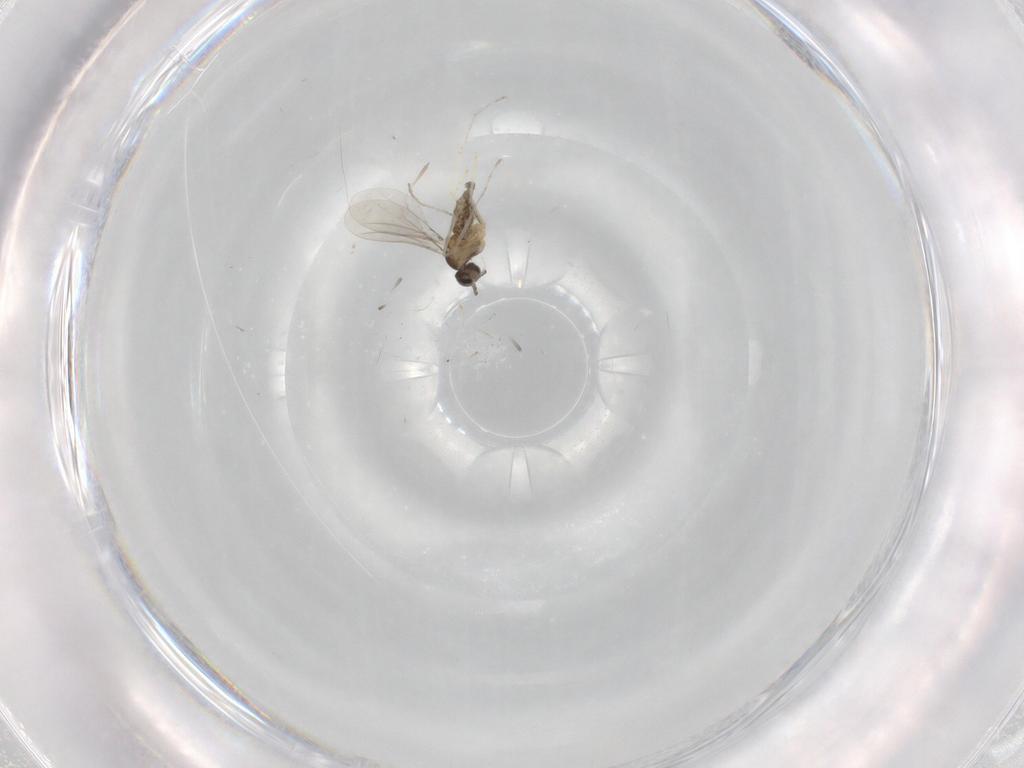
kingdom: Animalia
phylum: Arthropoda
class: Insecta
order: Diptera
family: Cecidomyiidae
